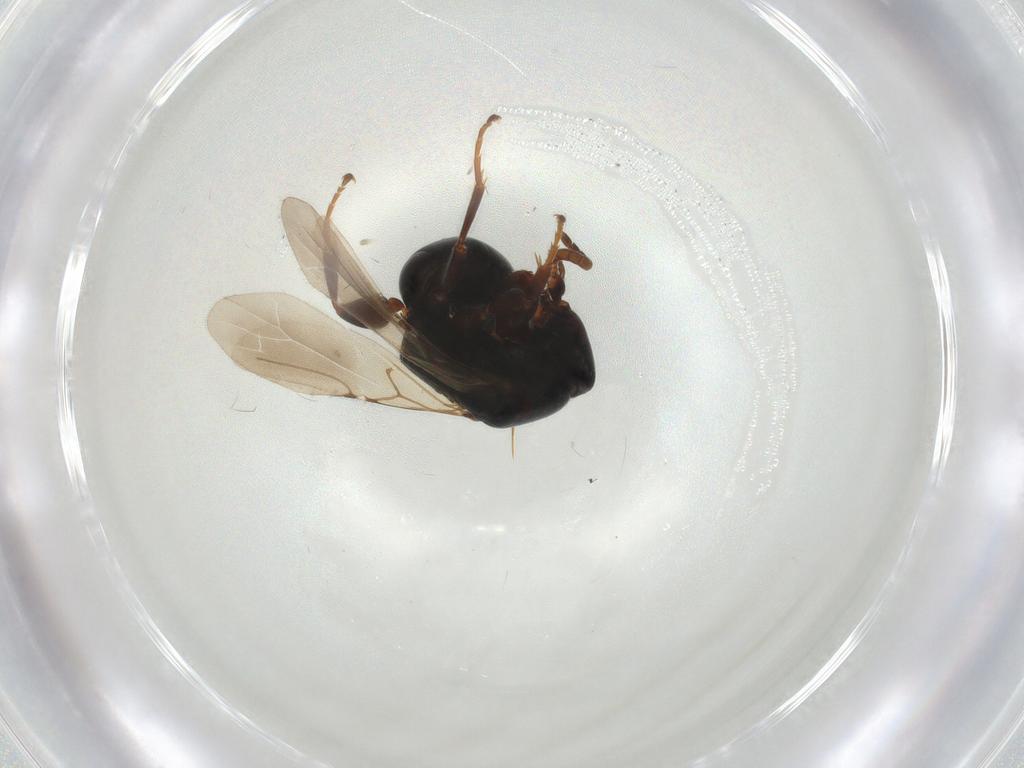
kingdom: Animalia
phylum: Arthropoda
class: Insecta
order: Hymenoptera
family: Bethylidae
